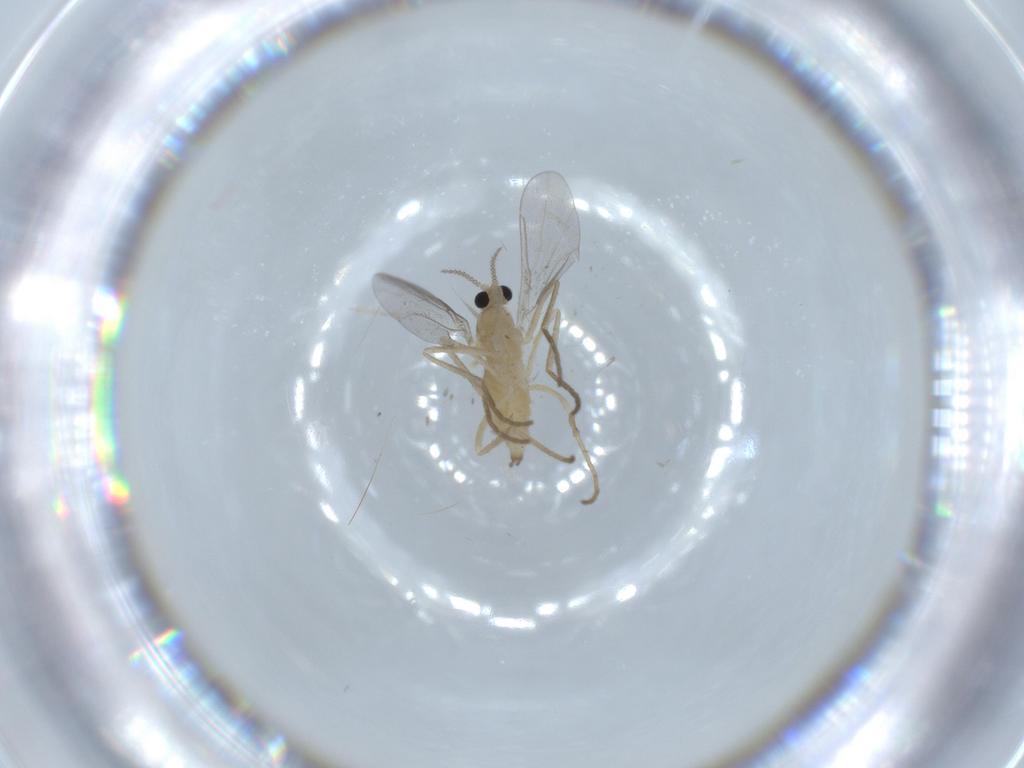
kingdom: Animalia
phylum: Arthropoda
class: Insecta
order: Diptera
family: Cecidomyiidae
